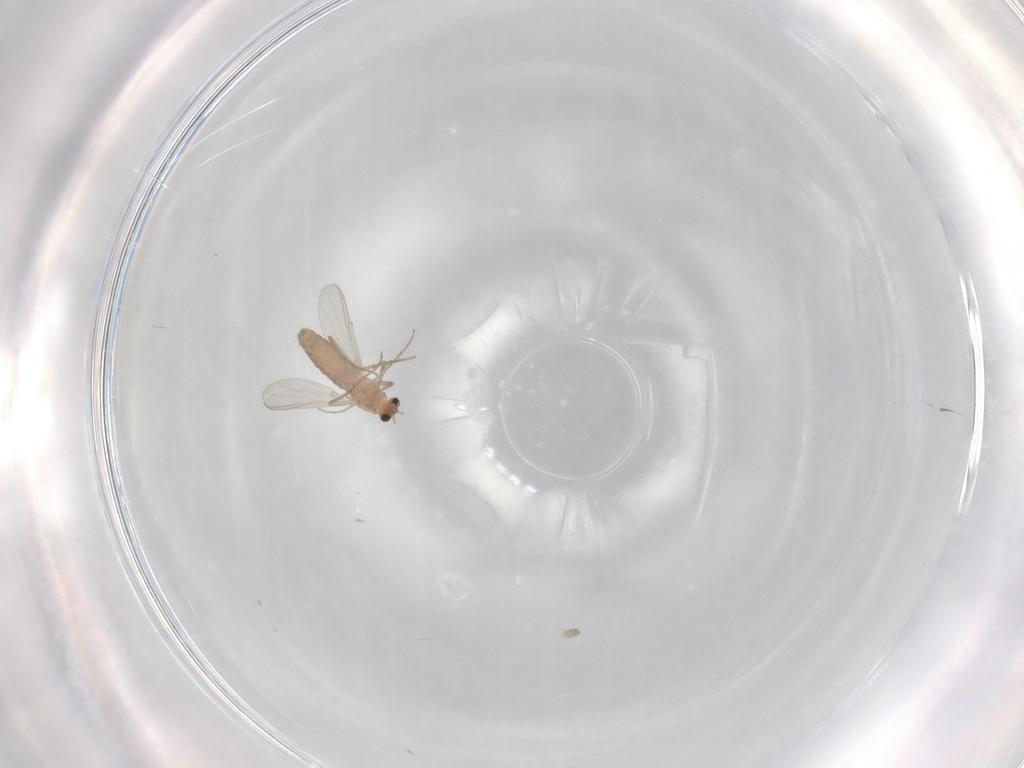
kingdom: Animalia
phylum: Arthropoda
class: Insecta
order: Diptera
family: Chironomidae
